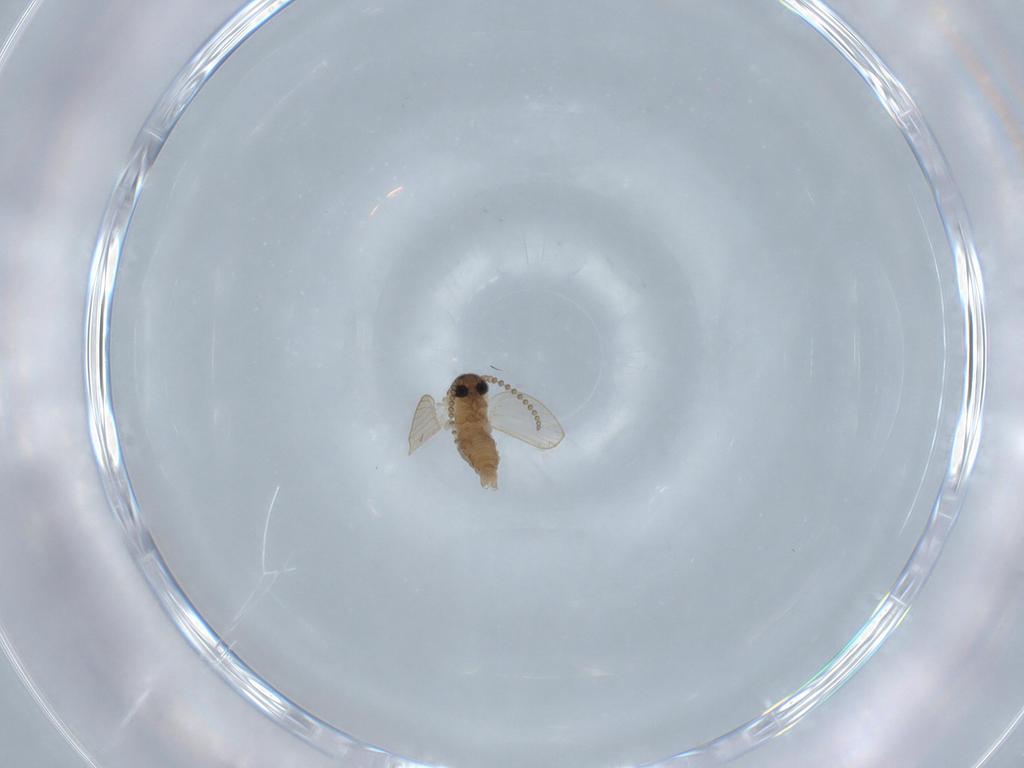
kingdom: Animalia
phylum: Arthropoda
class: Insecta
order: Diptera
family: Psychodidae
